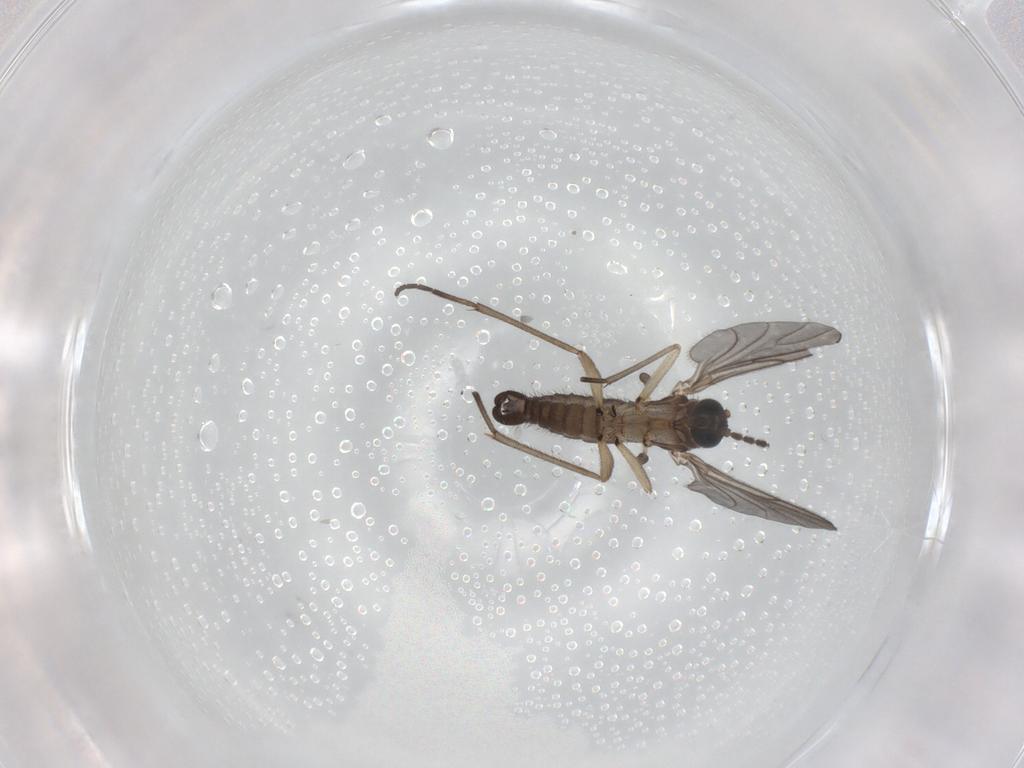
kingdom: Animalia
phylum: Arthropoda
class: Insecta
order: Diptera
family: Sciaridae
